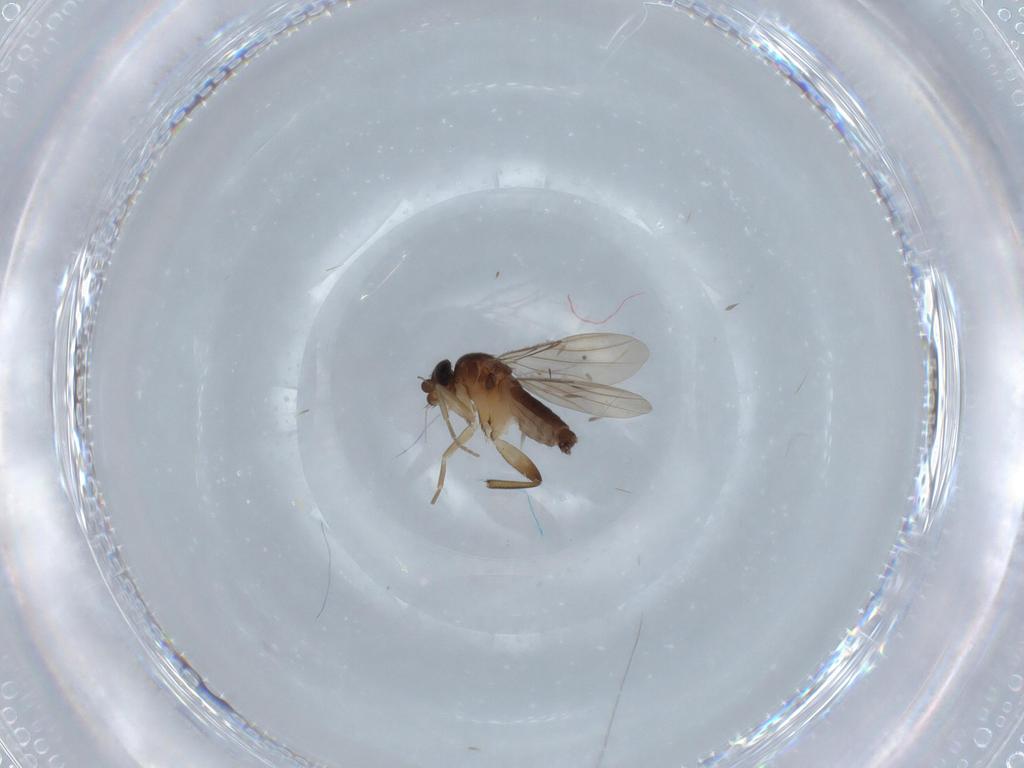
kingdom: Animalia
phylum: Arthropoda
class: Insecta
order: Diptera
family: Phoridae
